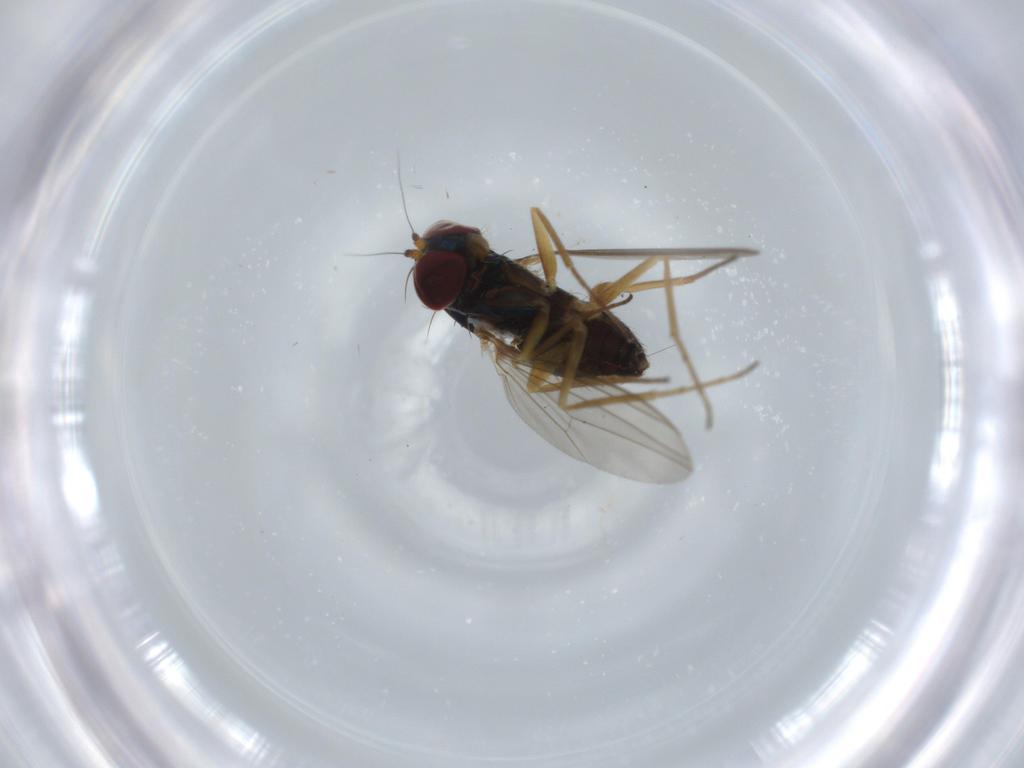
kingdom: Animalia
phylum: Arthropoda
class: Insecta
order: Diptera
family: Dolichopodidae
